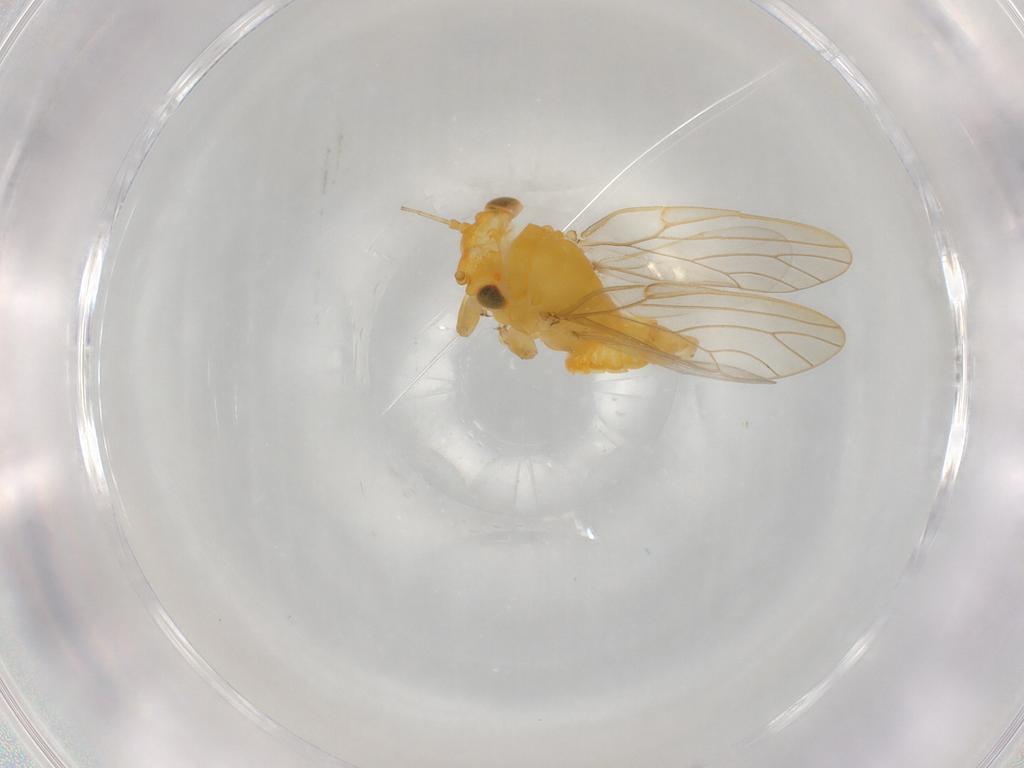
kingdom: Animalia
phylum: Arthropoda
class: Insecta
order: Hemiptera
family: Aphalaridae
